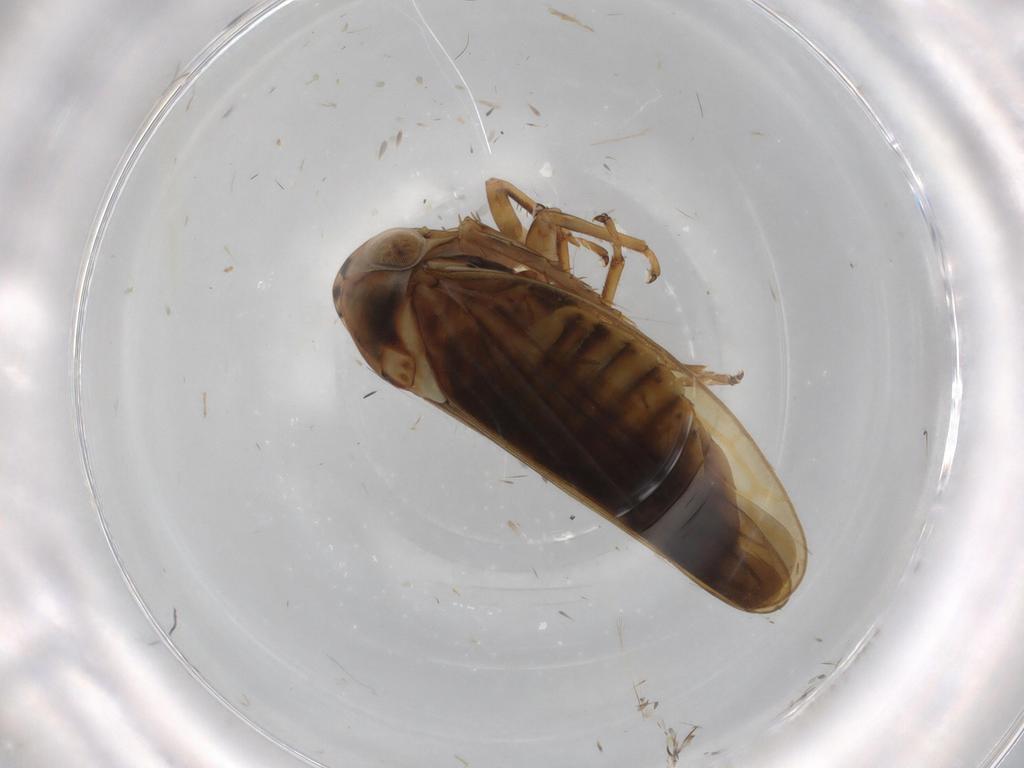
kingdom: Animalia
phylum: Arthropoda
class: Insecta
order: Hemiptera
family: Cicadellidae
